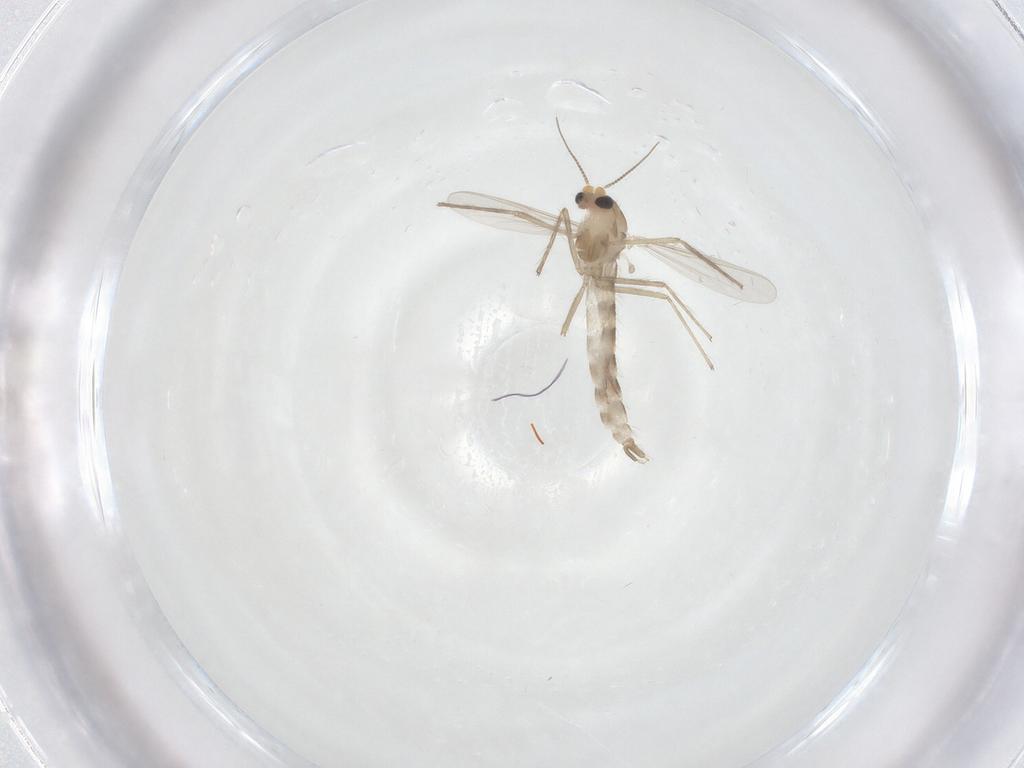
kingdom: Animalia
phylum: Arthropoda
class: Insecta
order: Diptera
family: Chironomidae
